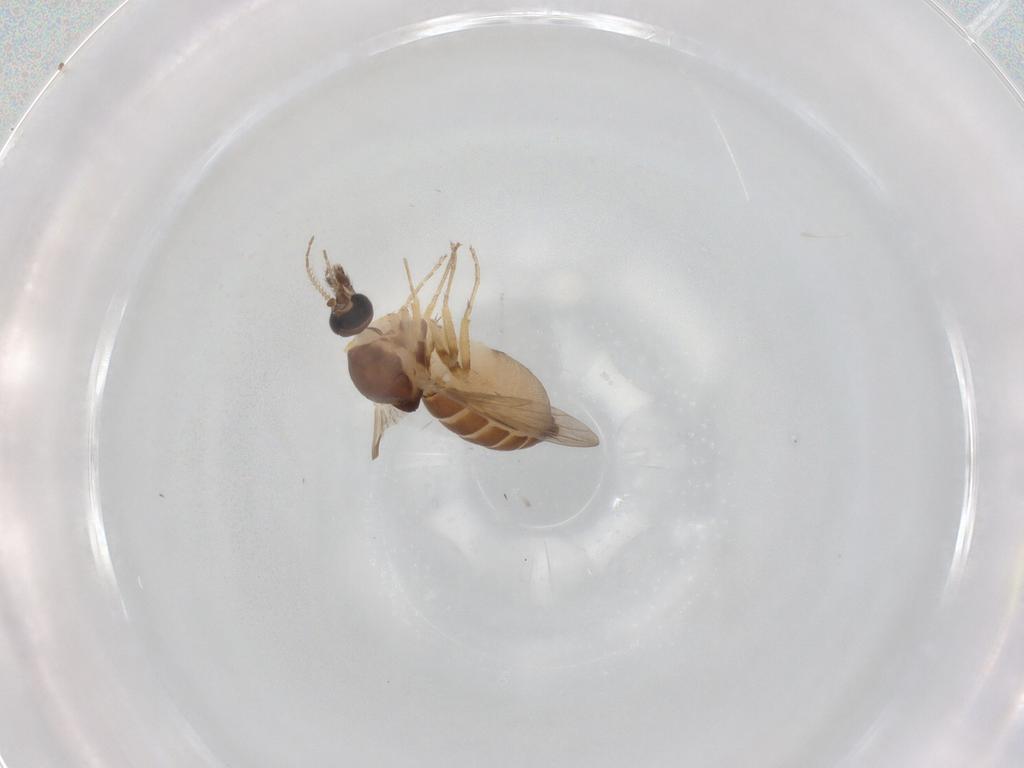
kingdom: Animalia
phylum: Arthropoda
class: Insecta
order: Diptera
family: Ceratopogonidae
